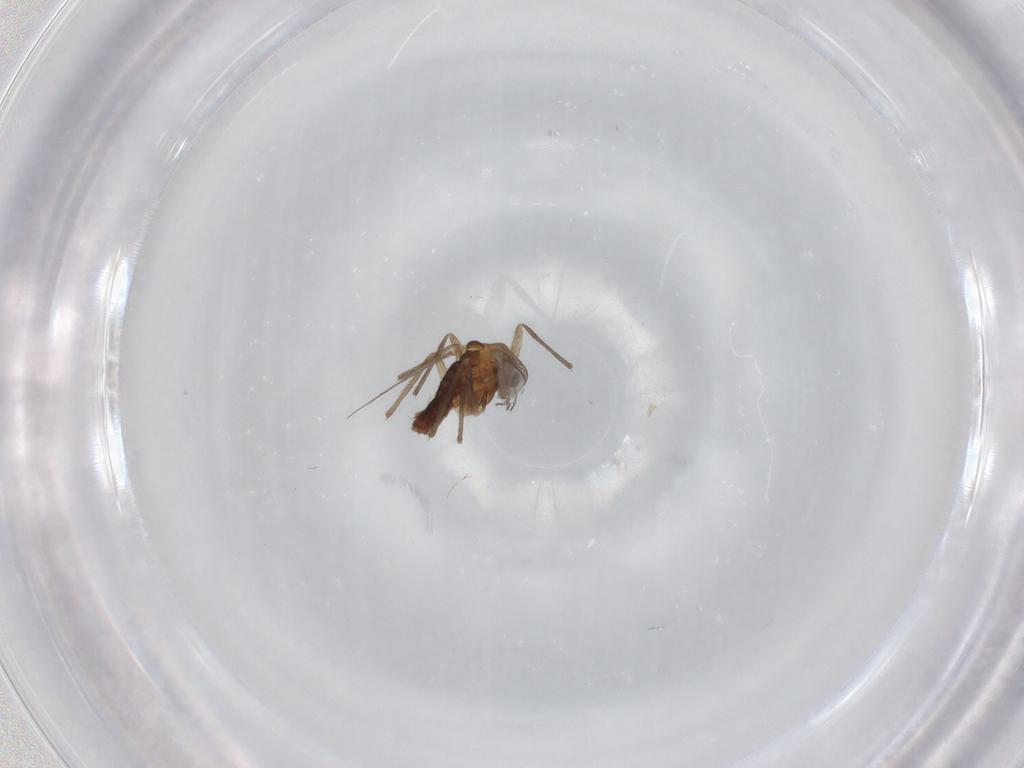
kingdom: Animalia
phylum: Arthropoda
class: Insecta
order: Diptera
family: Chironomidae
